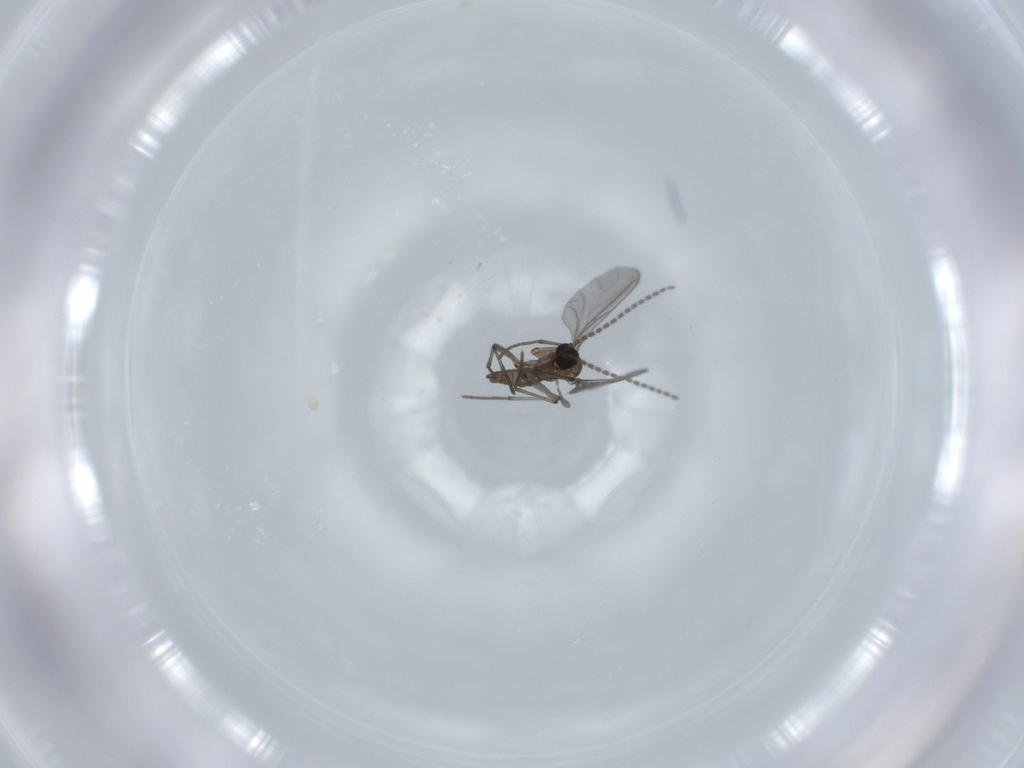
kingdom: Animalia
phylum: Arthropoda
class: Insecta
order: Diptera
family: Sciaridae
